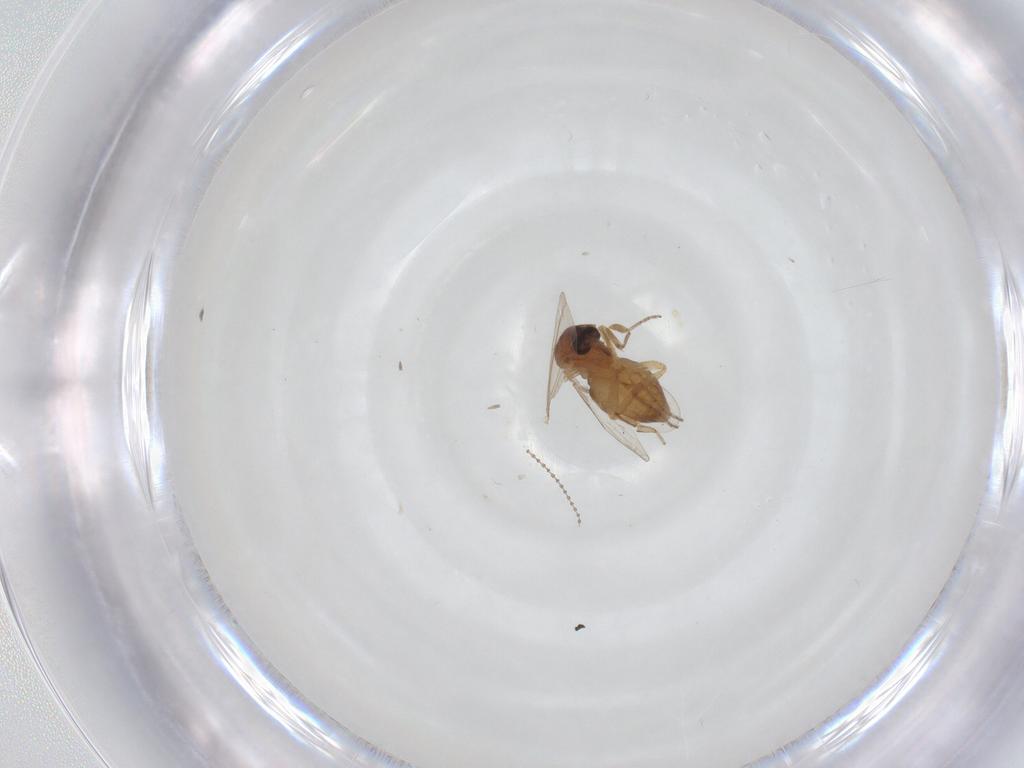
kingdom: Animalia
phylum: Arthropoda
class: Insecta
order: Diptera
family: Ceratopogonidae
